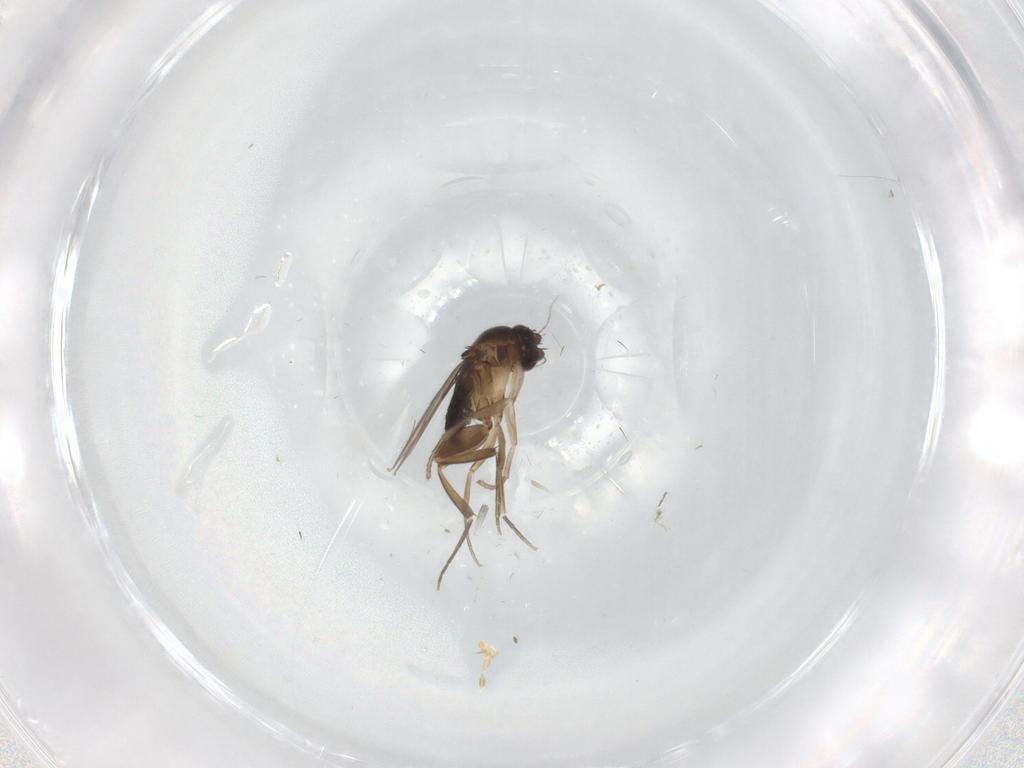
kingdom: Animalia
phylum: Arthropoda
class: Insecta
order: Diptera
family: Phoridae
